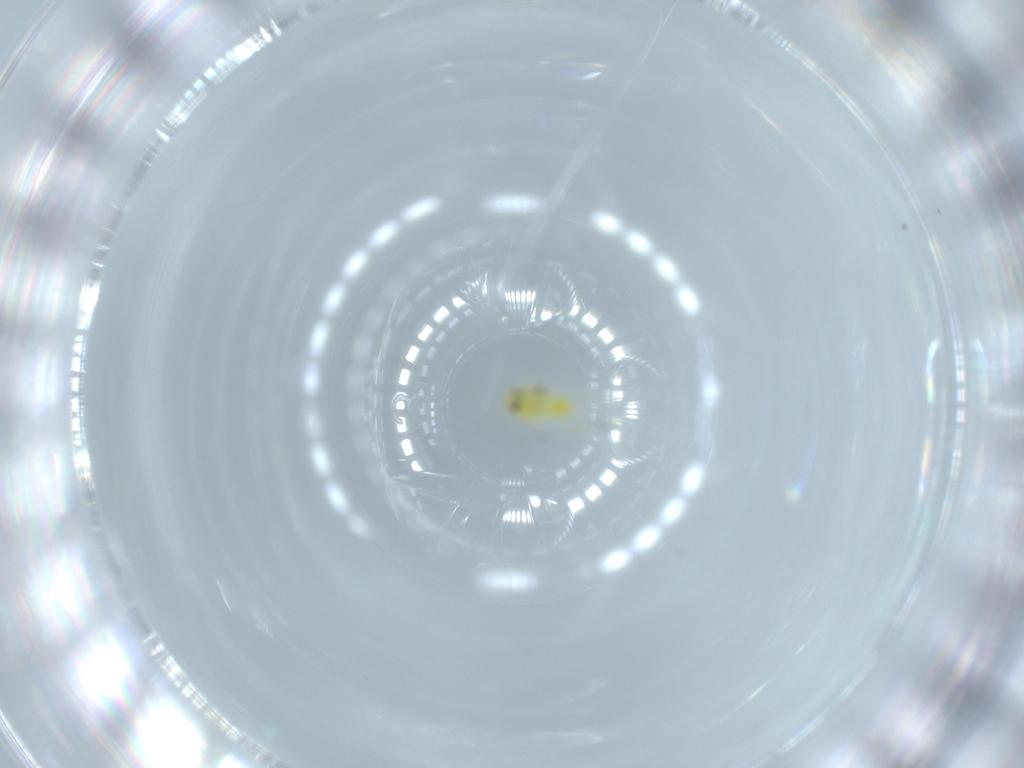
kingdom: Animalia
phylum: Arthropoda
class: Insecta
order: Hemiptera
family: Aleyrodidae
